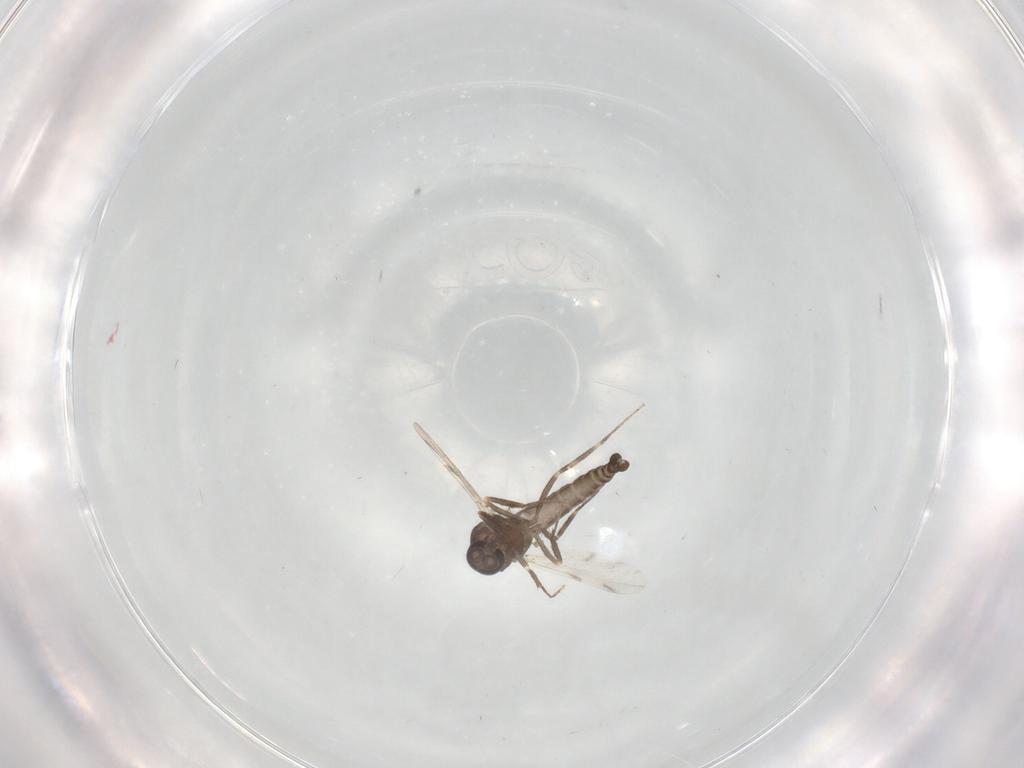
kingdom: Animalia
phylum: Arthropoda
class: Insecta
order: Diptera
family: Ceratopogonidae
